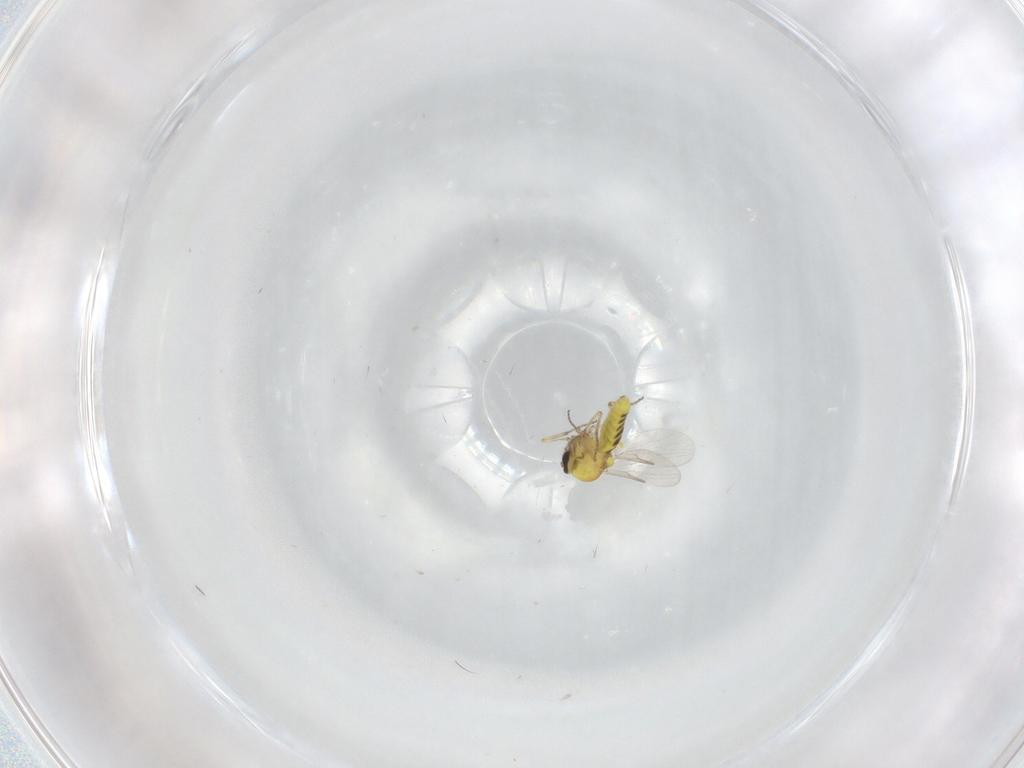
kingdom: Animalia
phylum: Arthropoda
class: Insecta
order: Diptera
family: Ceratopogonidae
